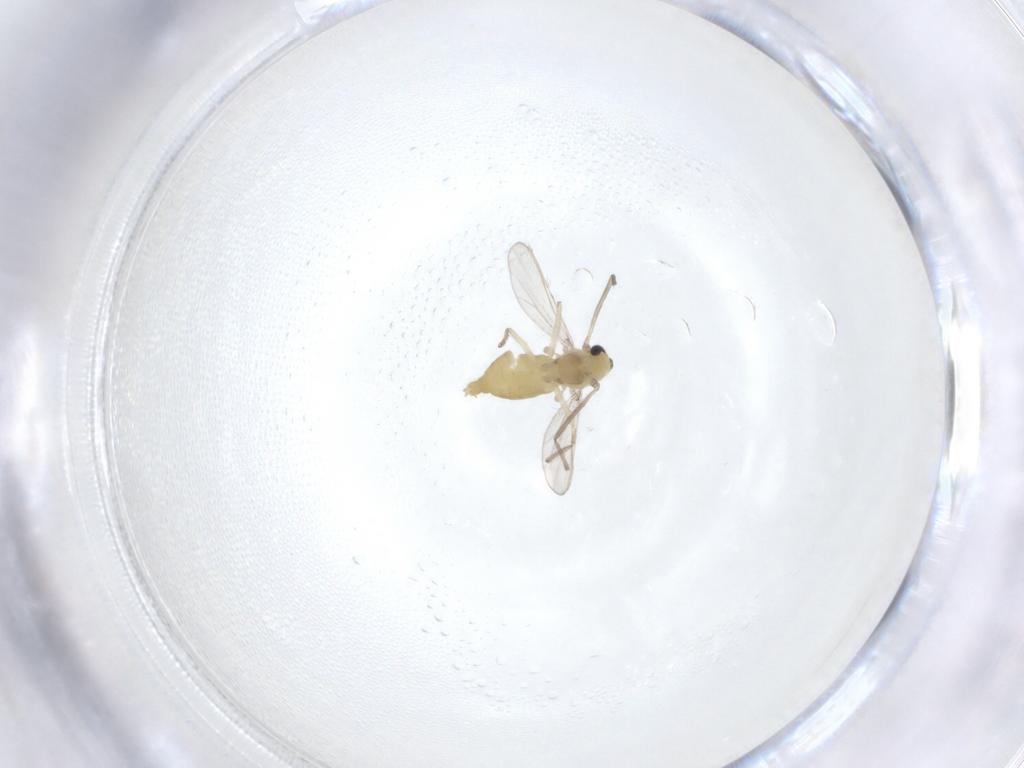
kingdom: Animalia
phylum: Arthropoda
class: Insecta
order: Diptera
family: Chironomidae
